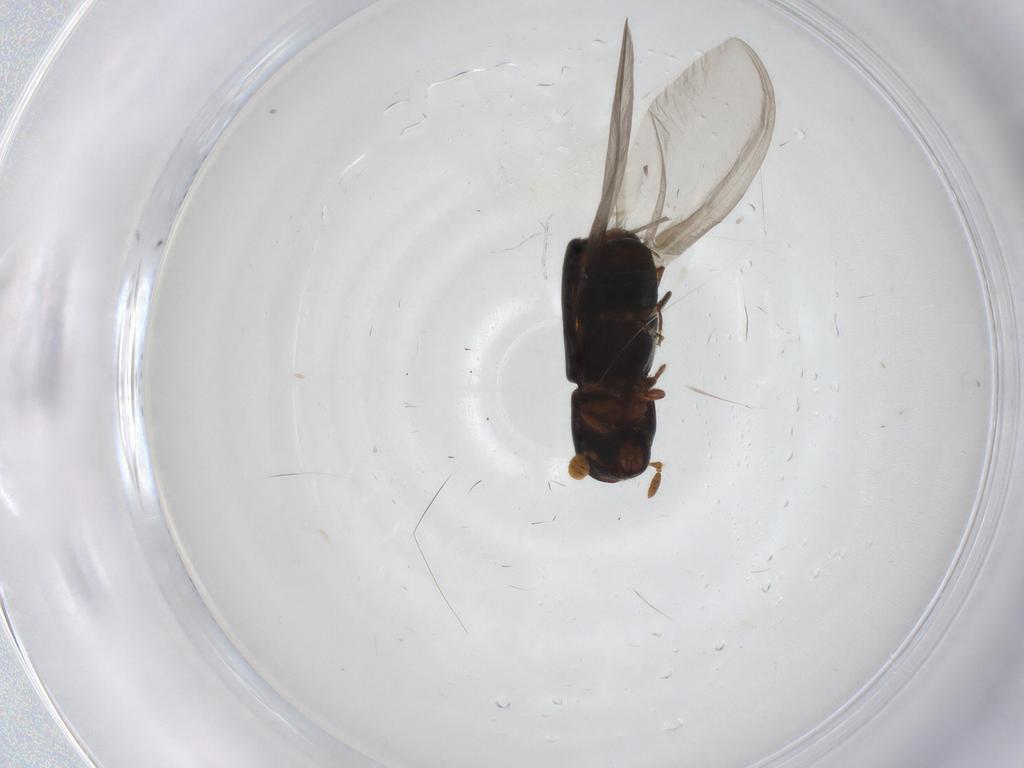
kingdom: Animalia
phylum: Arthropoda
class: Insecta
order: Coleoptera
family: Curculionidae
